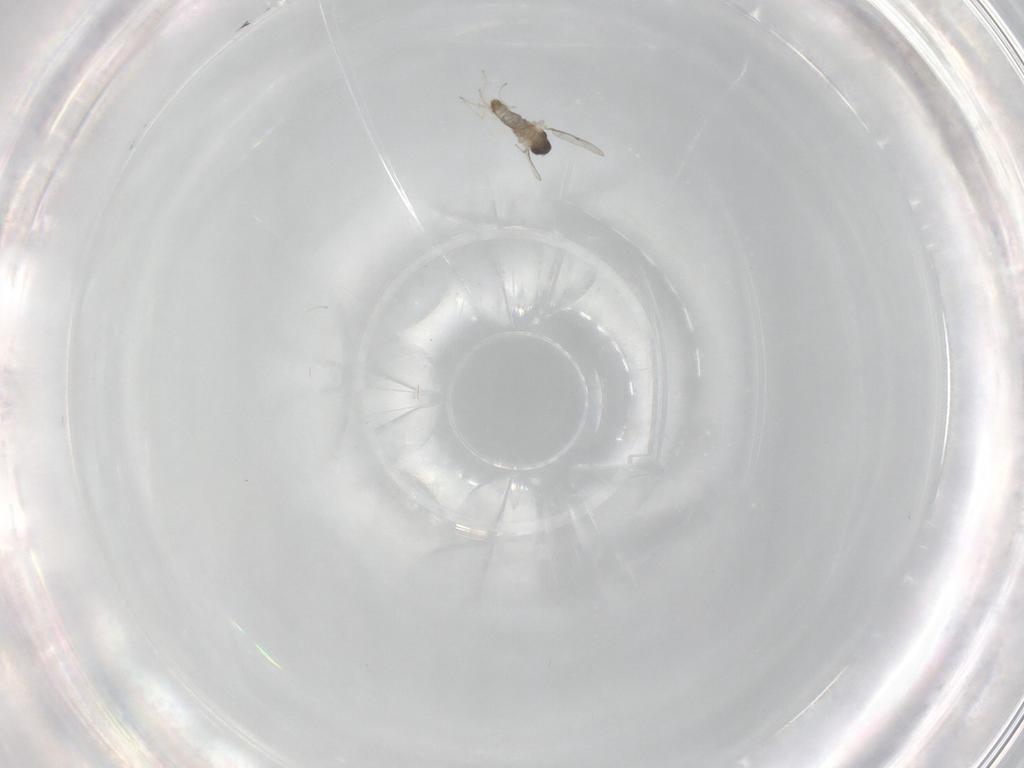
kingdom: Animalia
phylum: Arthropoda
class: Insecta
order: Diptera
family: Cecidomyiidae
